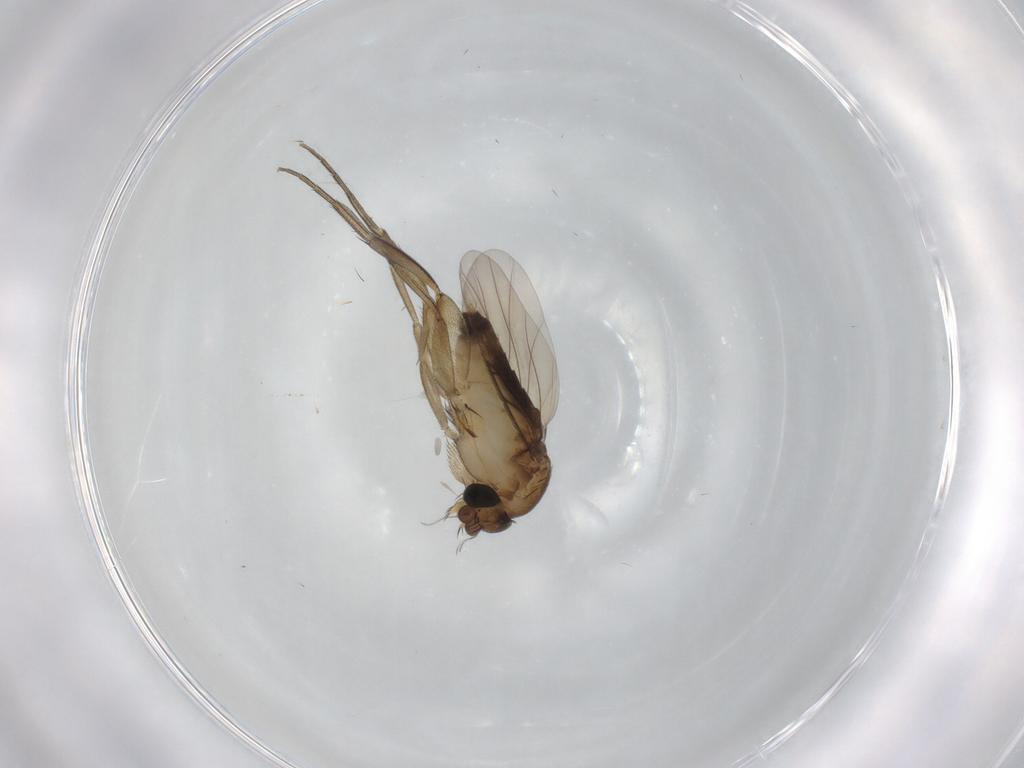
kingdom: Animalia
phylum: Arthropoda
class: Insecta
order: Diptera
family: Phoridae
